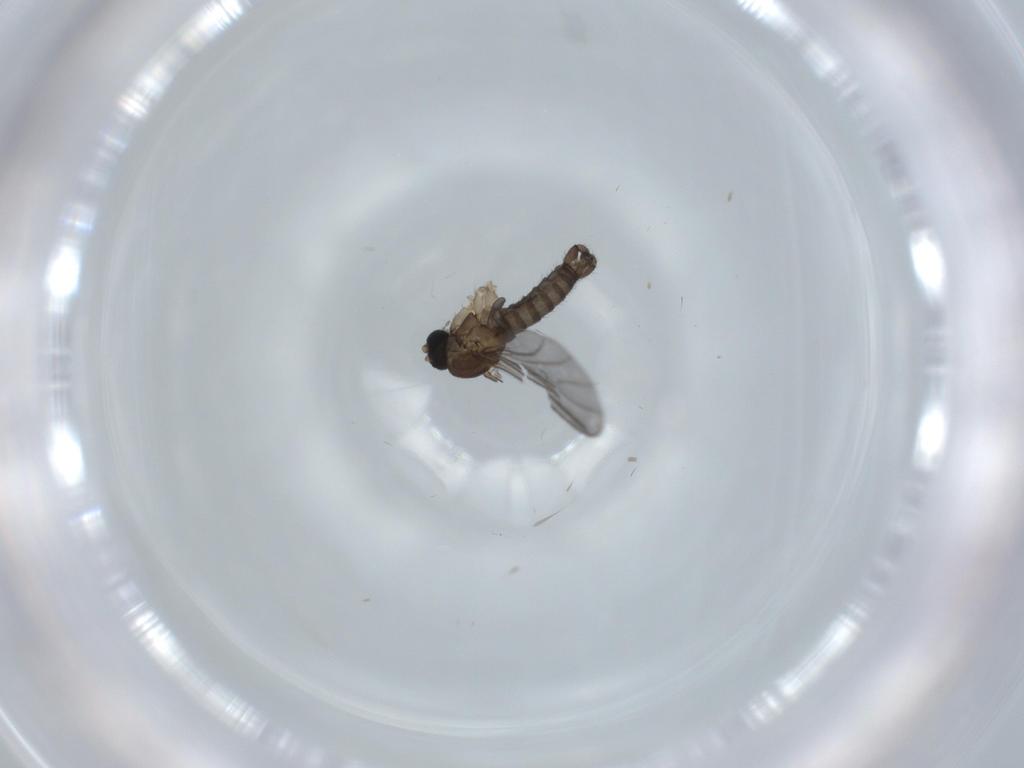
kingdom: Animalia
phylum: Arthropoda
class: Insecta
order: Diptera
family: Sciaridae
